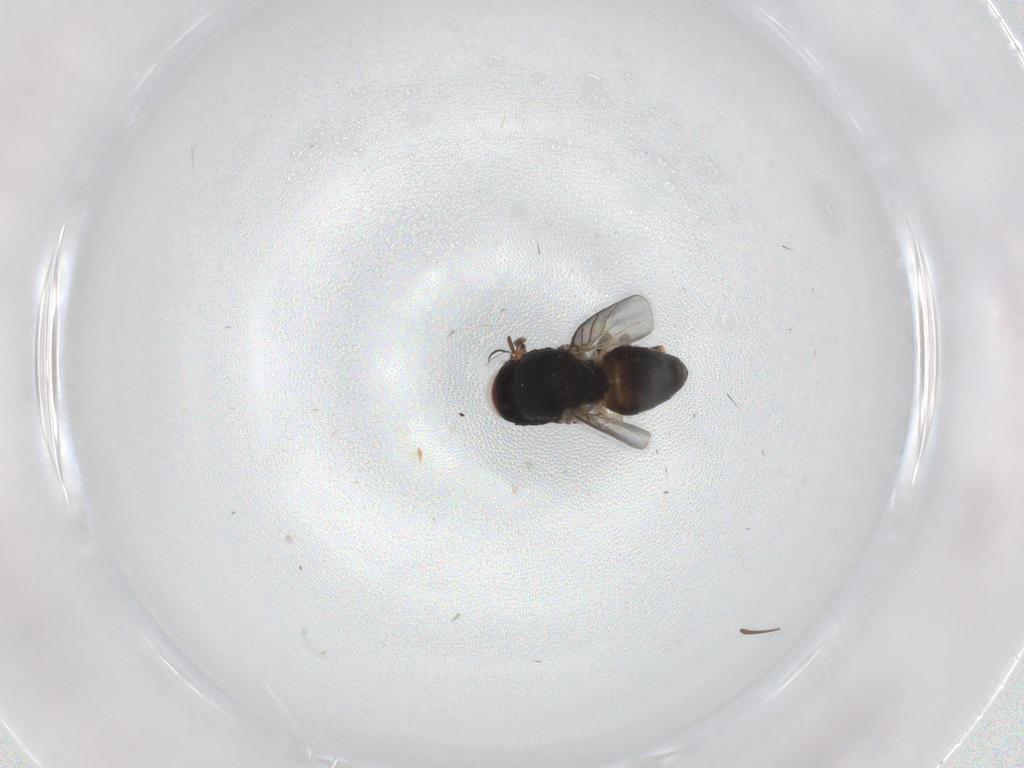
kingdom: Animalia
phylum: Arthropoda
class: Insecta
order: Diptera
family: Chloropidae
